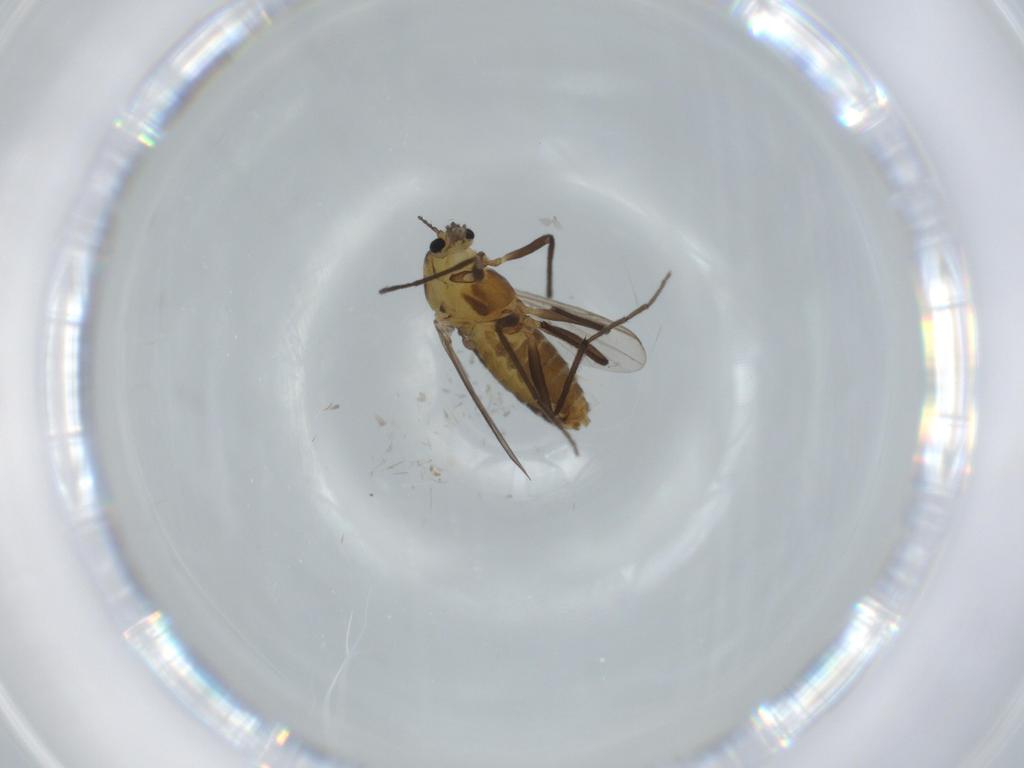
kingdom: Animalia
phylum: Arthropoda
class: Insecta
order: Diptera
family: Chironomidae
